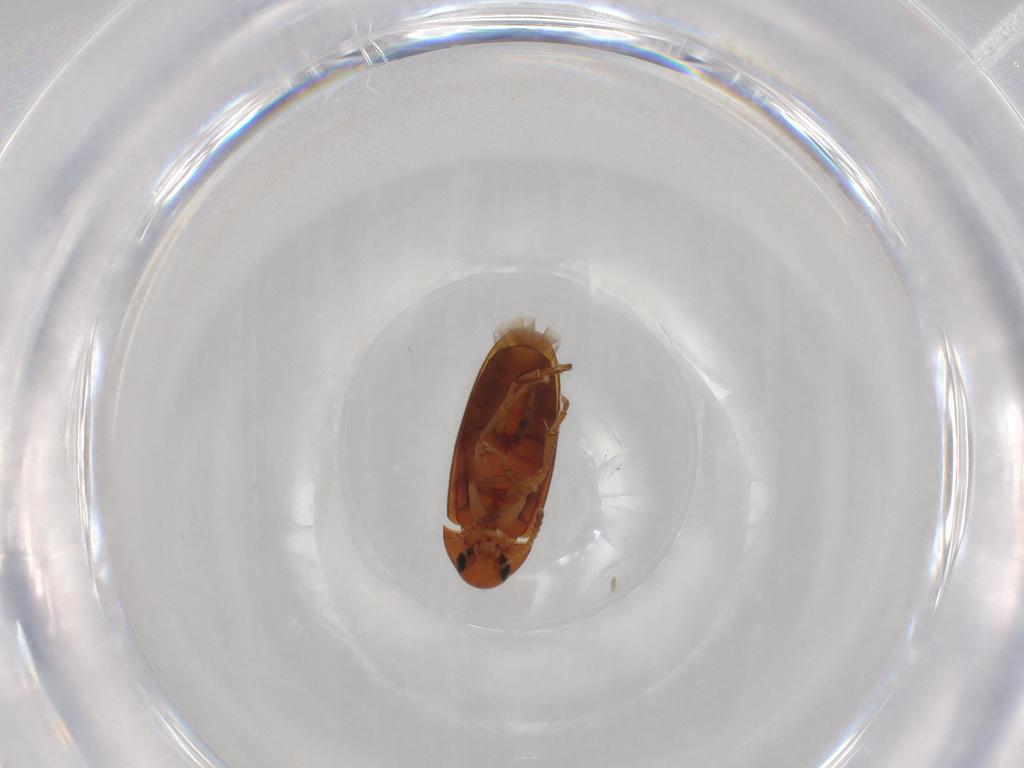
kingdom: Animalia
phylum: Arthropoda
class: Insecta
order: Coleoptera
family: Scraptiidae
